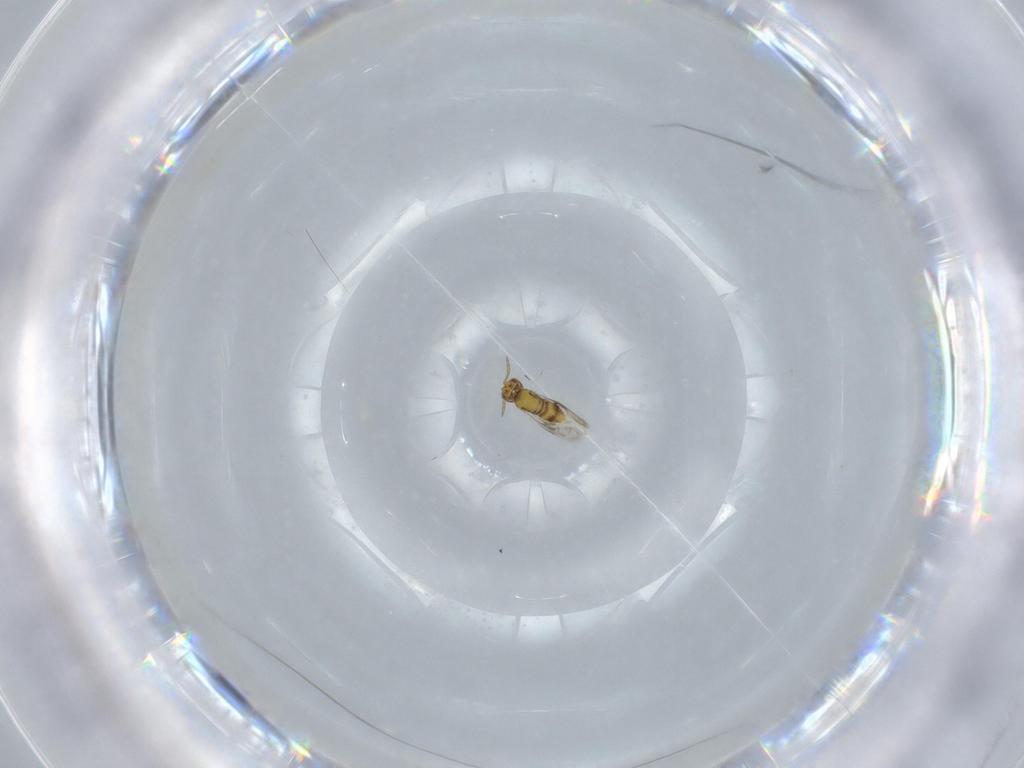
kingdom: Animalia
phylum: Arthropoda
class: Insecta
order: Hymenoptera
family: Aphelinidae
